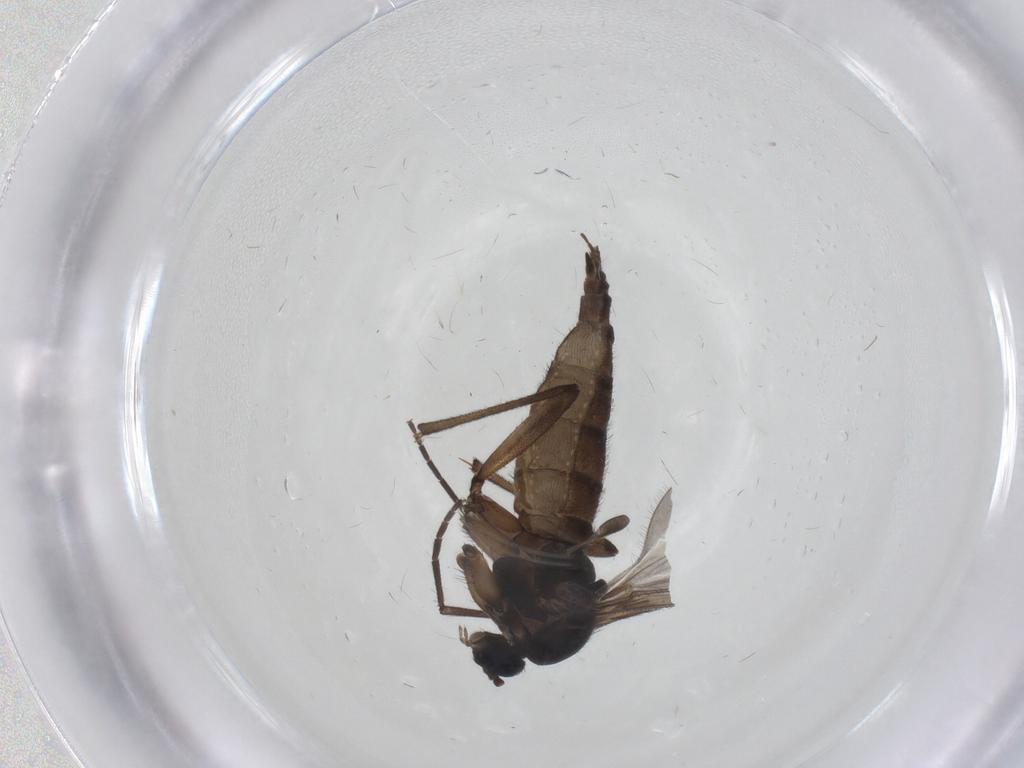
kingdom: Animalia
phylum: Arthropoda
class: Insecta
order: Diptera
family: Sciaridae
